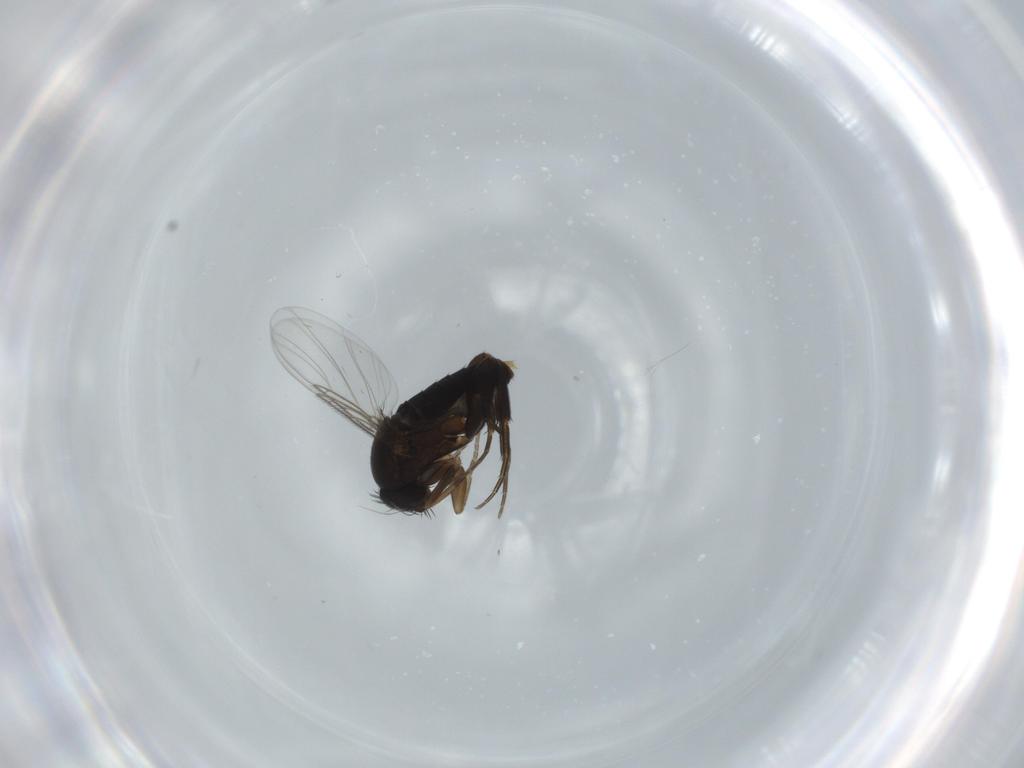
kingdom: Animalia
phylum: Arthropoda
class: Insecta
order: Diptera
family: Phoridae
